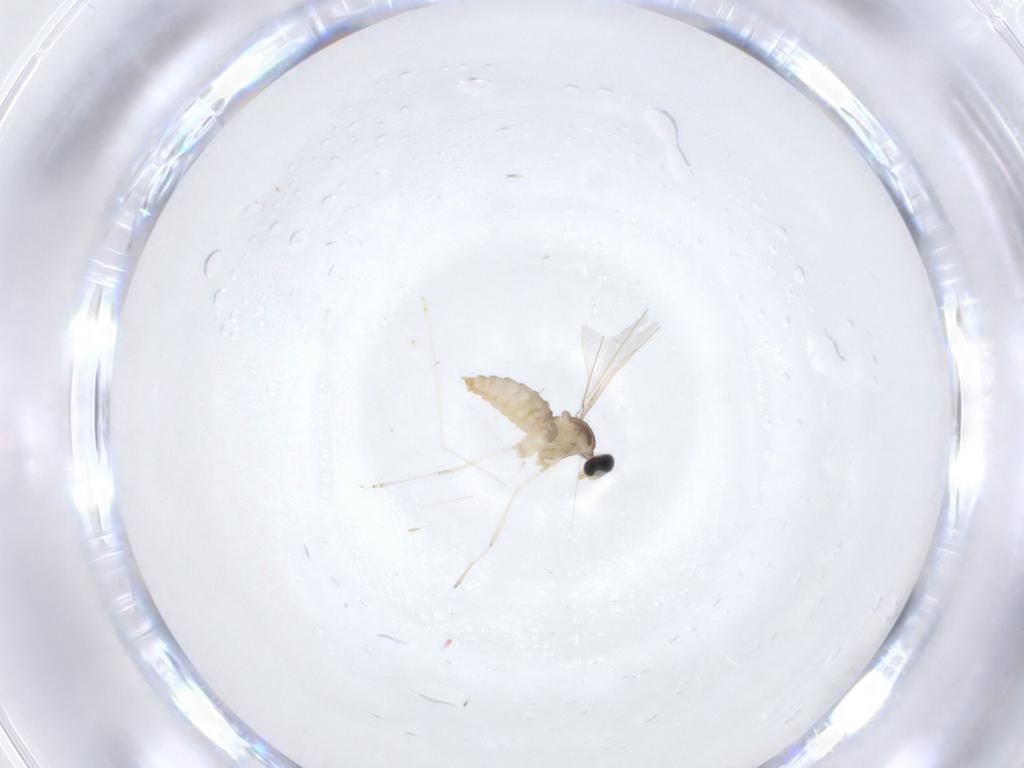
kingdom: Animalia
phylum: Arthropoda
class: Insecta
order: Diptera
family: Cecidomyiidae
